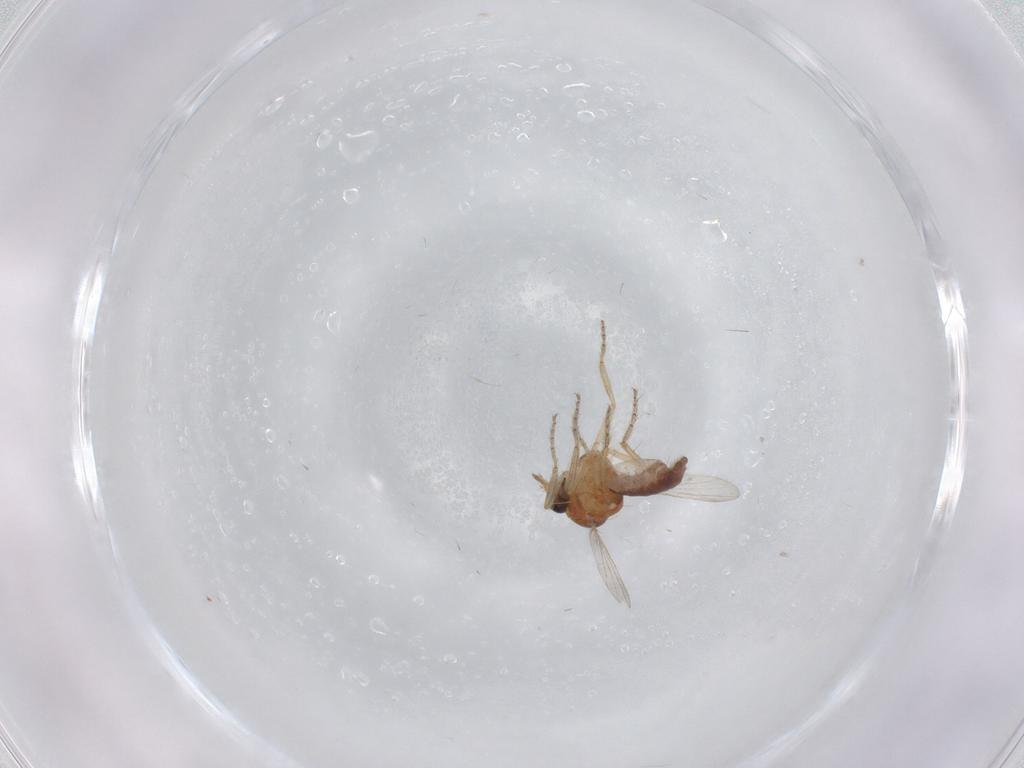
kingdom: Animalia
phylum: Arthropoda
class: Insecta
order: Diptera
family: Ceratopogonidae
